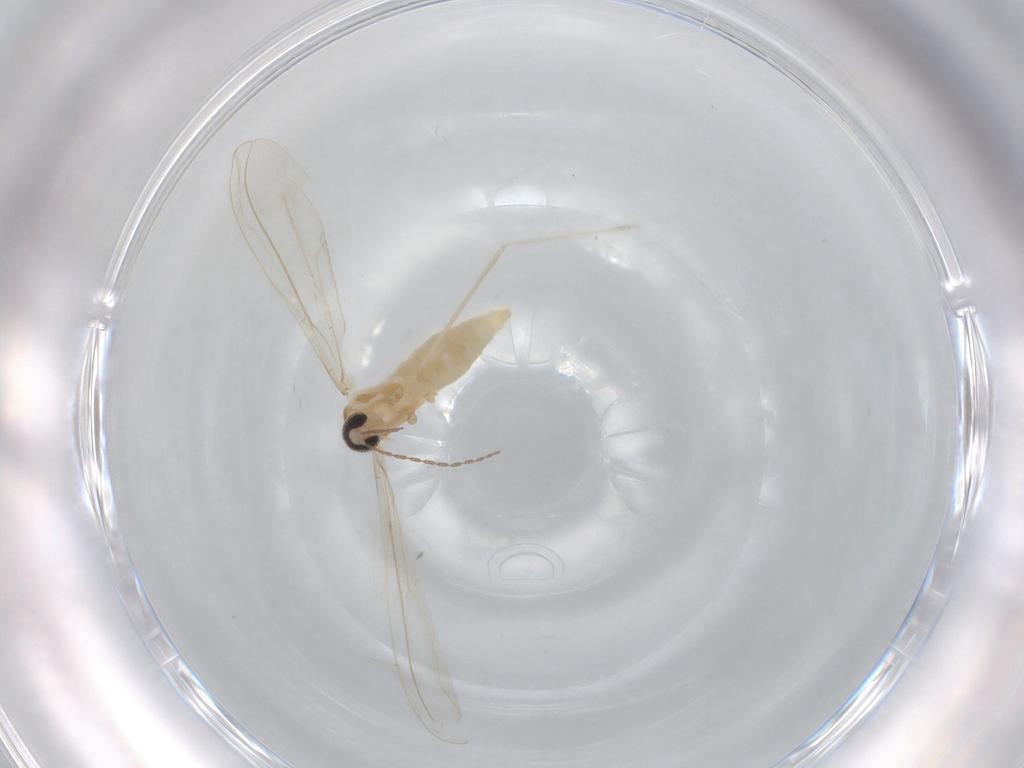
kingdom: Animalia
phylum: Arthropoda
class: Insecta
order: Diptera
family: Cecidomyiidae
